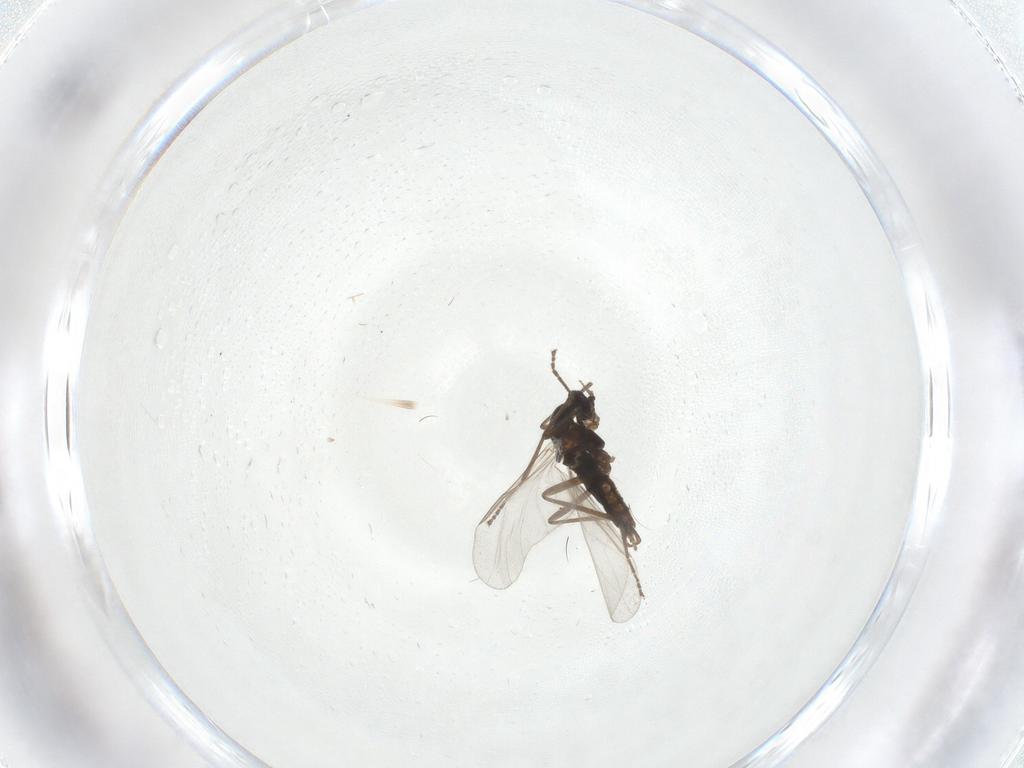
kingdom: Animalia
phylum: Arthropoda
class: Insecta
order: Diptera
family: Cecidomyiidae
